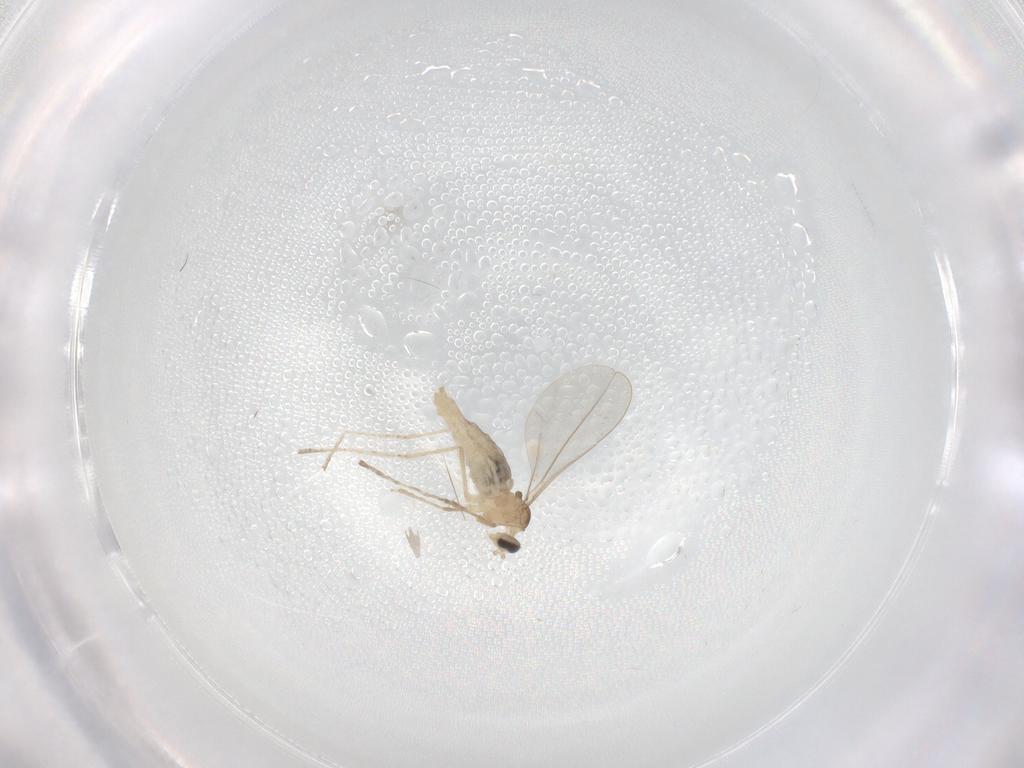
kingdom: Animalia
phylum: Arthropoda
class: Insecta
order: Diptera
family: Cecidomyiidae
